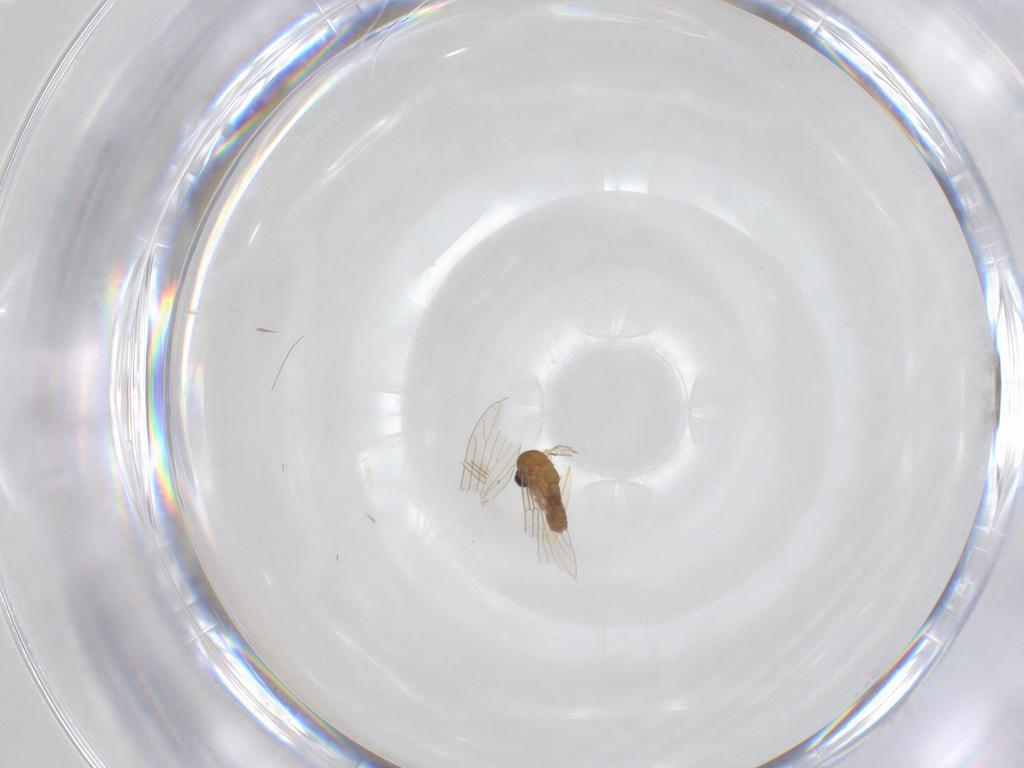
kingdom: Animalia
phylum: Arthropoda
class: Insecta
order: Diptera
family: Psychodidae
